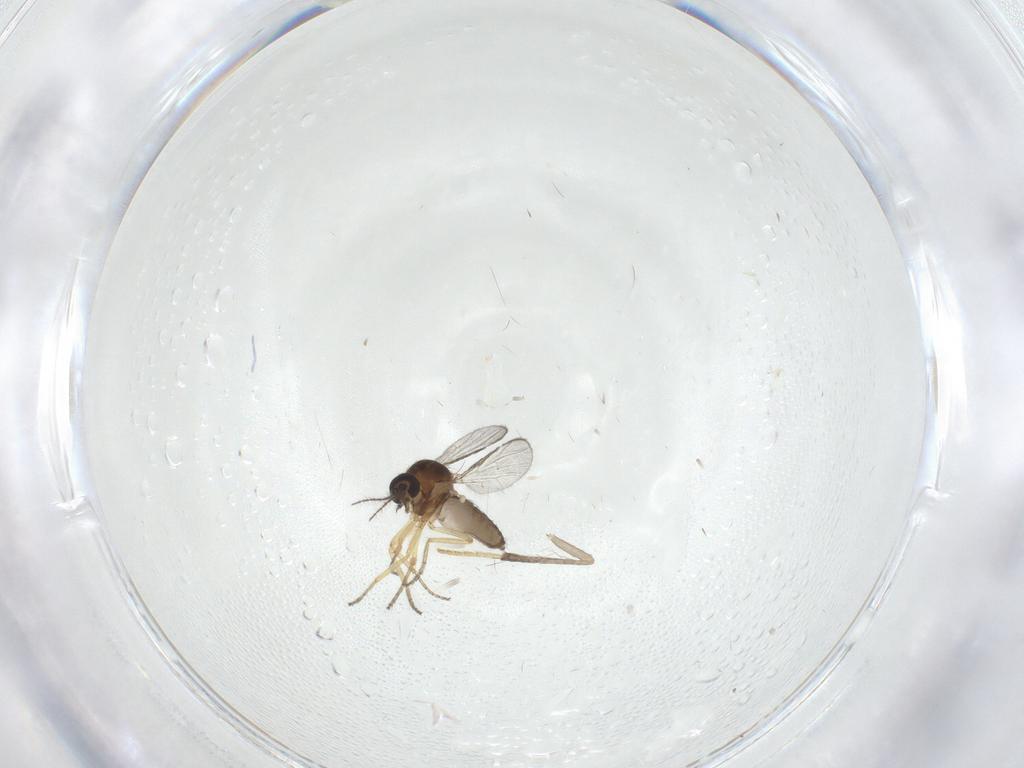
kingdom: Animalia
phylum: Arthropoda
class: Insecta
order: Diptera
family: Ceratopogonidae
